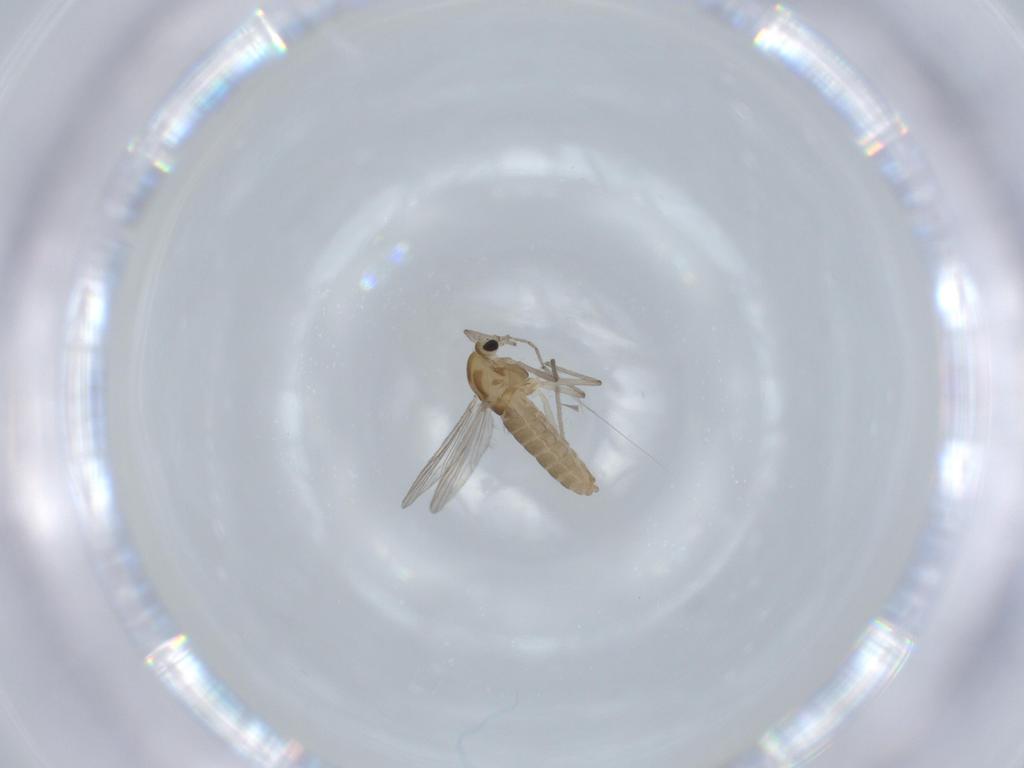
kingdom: Animalia
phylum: Arthropoda
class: Insecta
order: Diptera
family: Chironomidae
